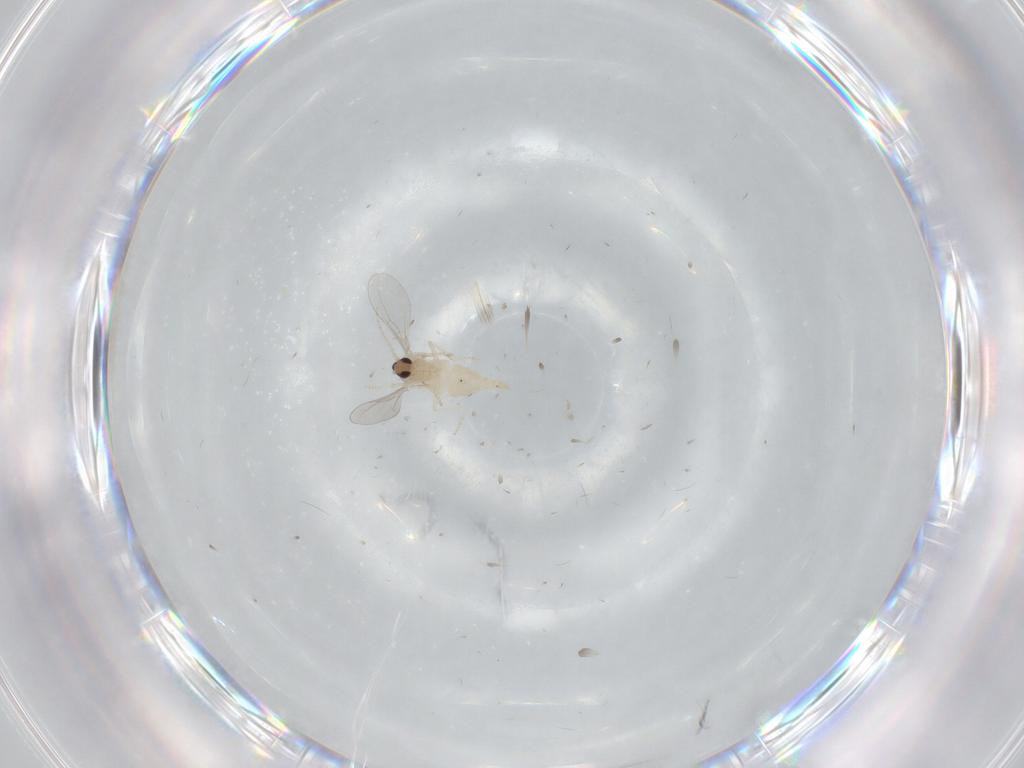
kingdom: Animalia
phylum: Arthropoda
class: Insecta
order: Diptera
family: Cecidomyiidae
